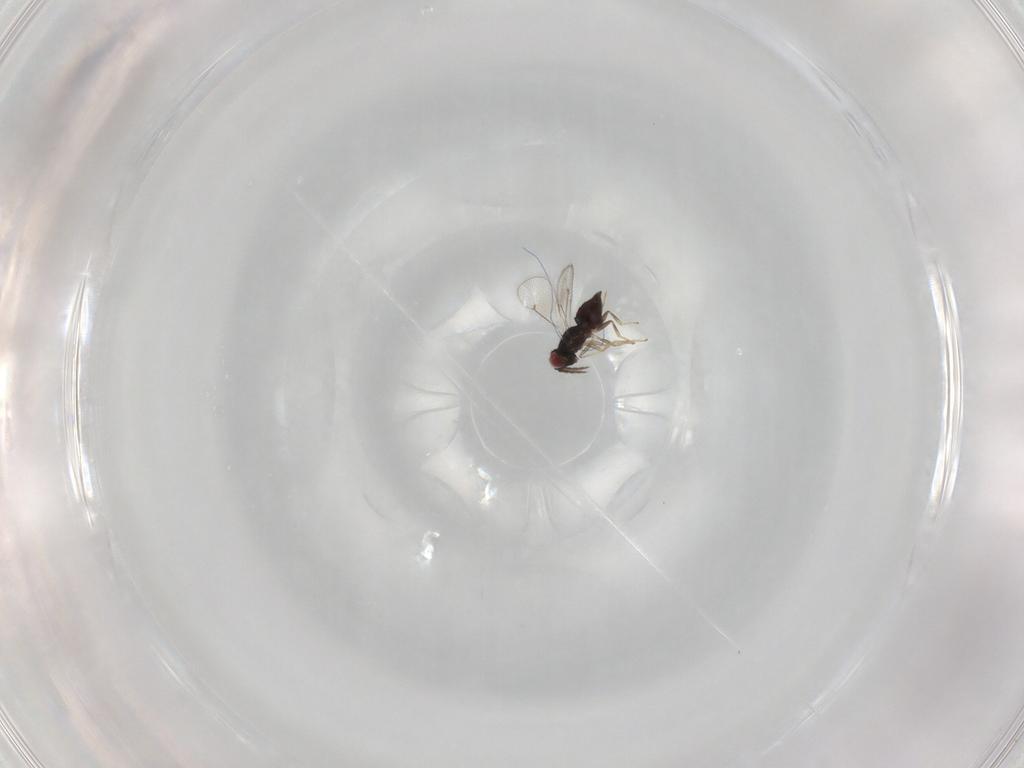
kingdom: Animalia
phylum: Arthropoda
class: Insecta
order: Hymenoptera
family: Eulophidae
